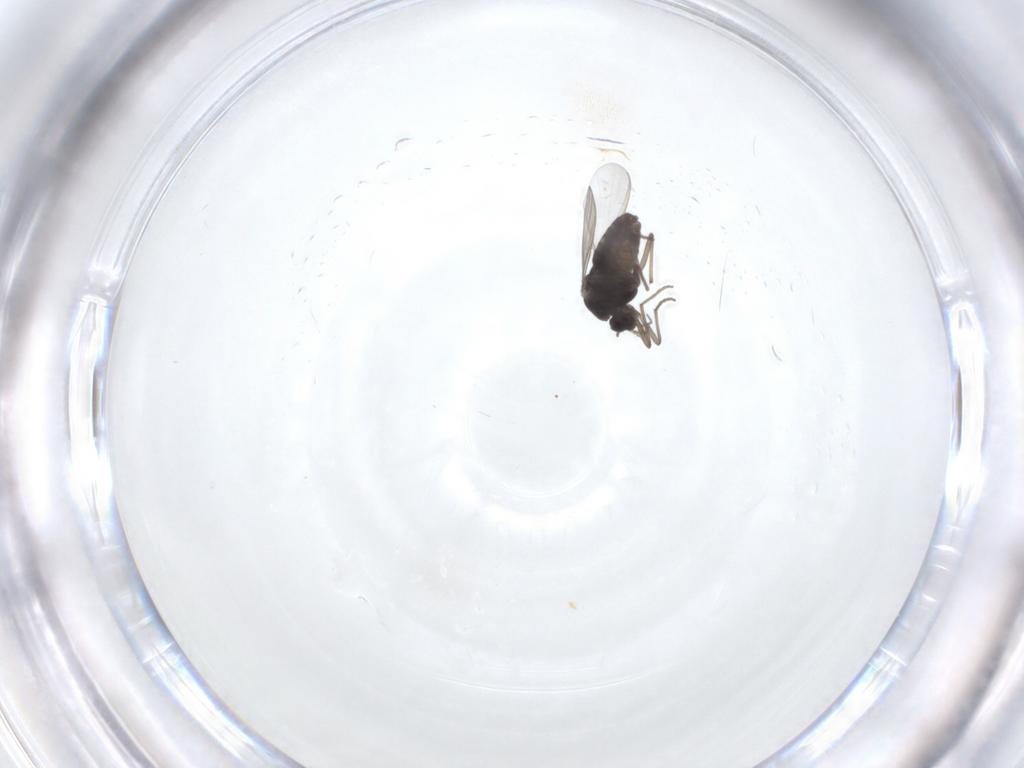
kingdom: Animalia
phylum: Arthropoda
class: Insecta
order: Diptera
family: Chironomidae
